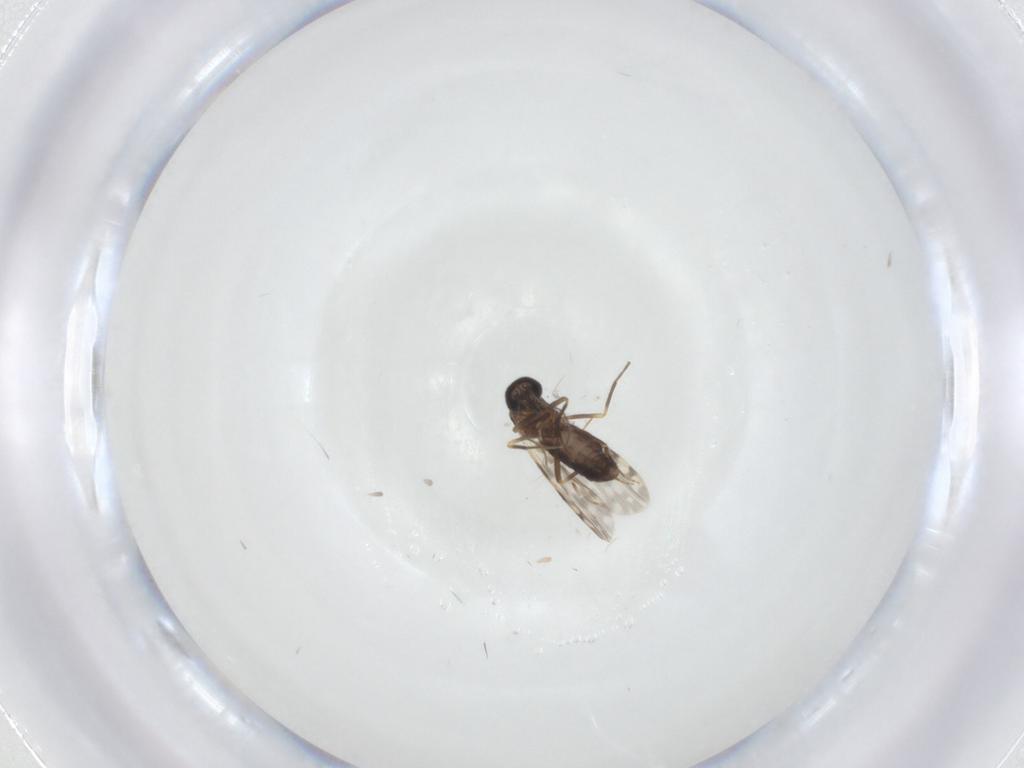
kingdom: Animalia
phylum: Arthropoda
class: Insecta
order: Diptera
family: Ceratopogonidae
